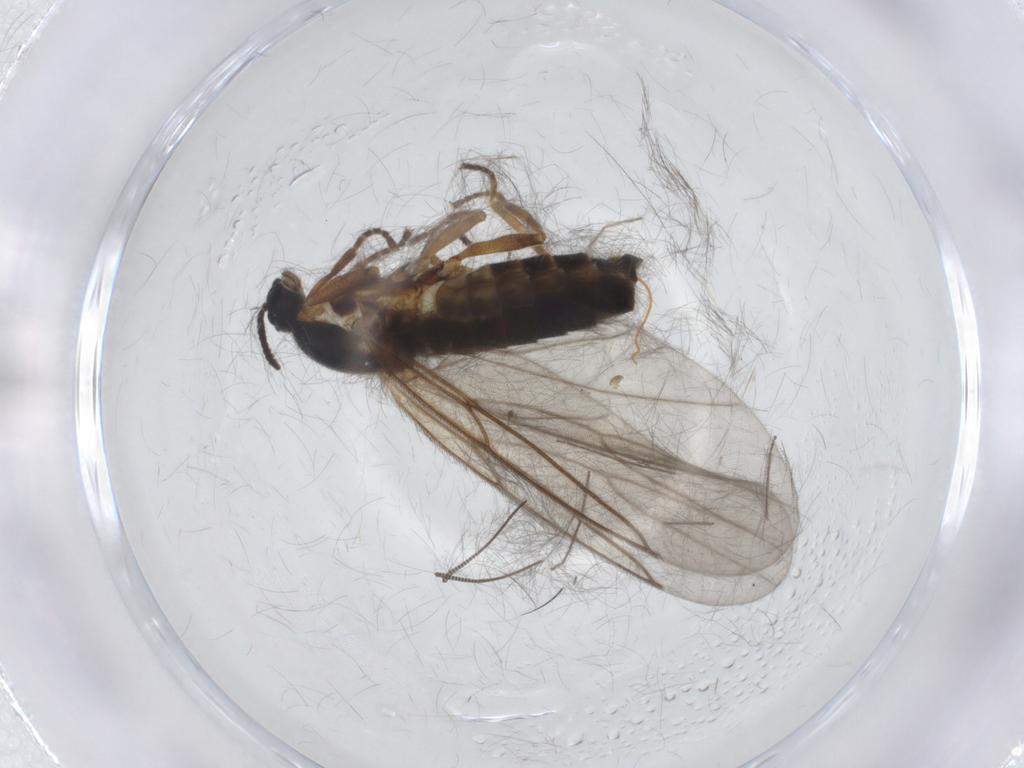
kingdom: Animalia
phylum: Arthropoda
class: Insecta
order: Diptera
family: Scatopsidae
